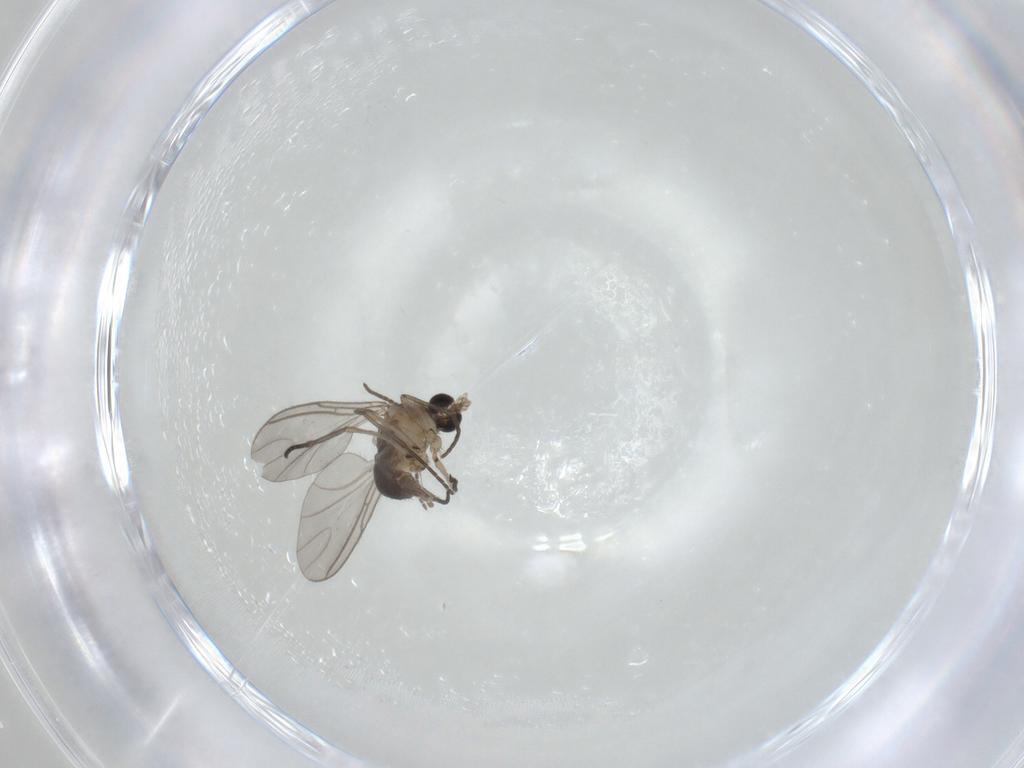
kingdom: Animalia
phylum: Arthropoda
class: Insecta
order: Diptera
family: Sciaridae
